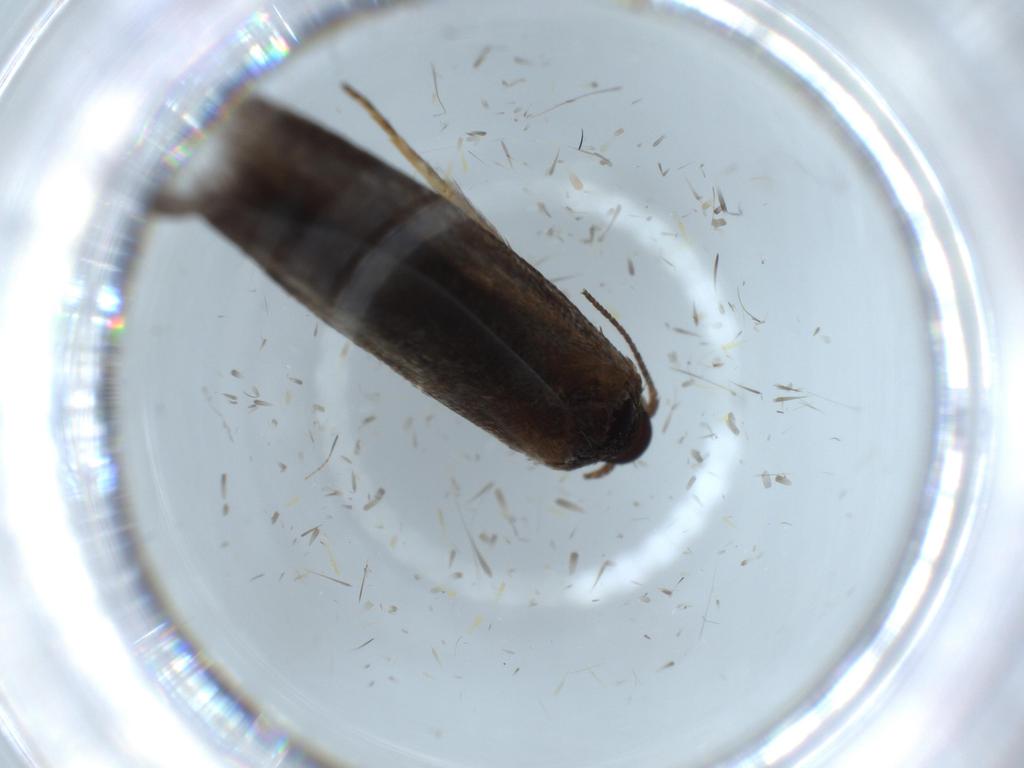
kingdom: Animalia
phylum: Arthropoda
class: Insecta
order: Lepidoptera
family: Oecophoridae
